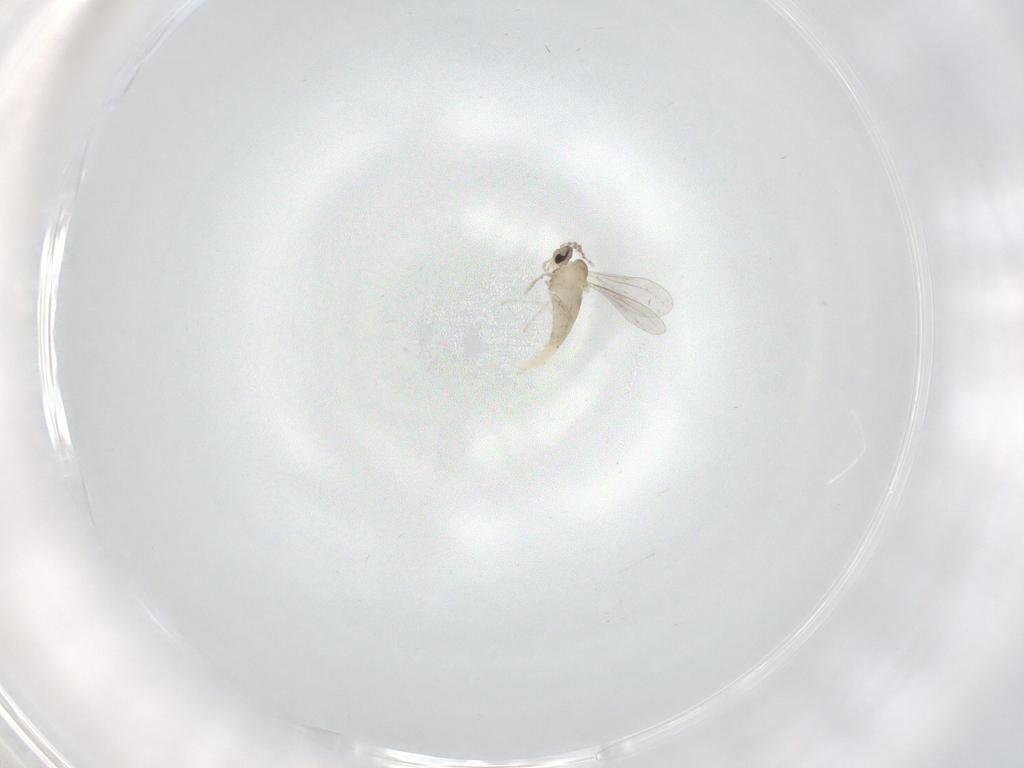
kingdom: Animalia
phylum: Arthropoda
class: Insecta
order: Diptera
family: Cecidomyiidae
